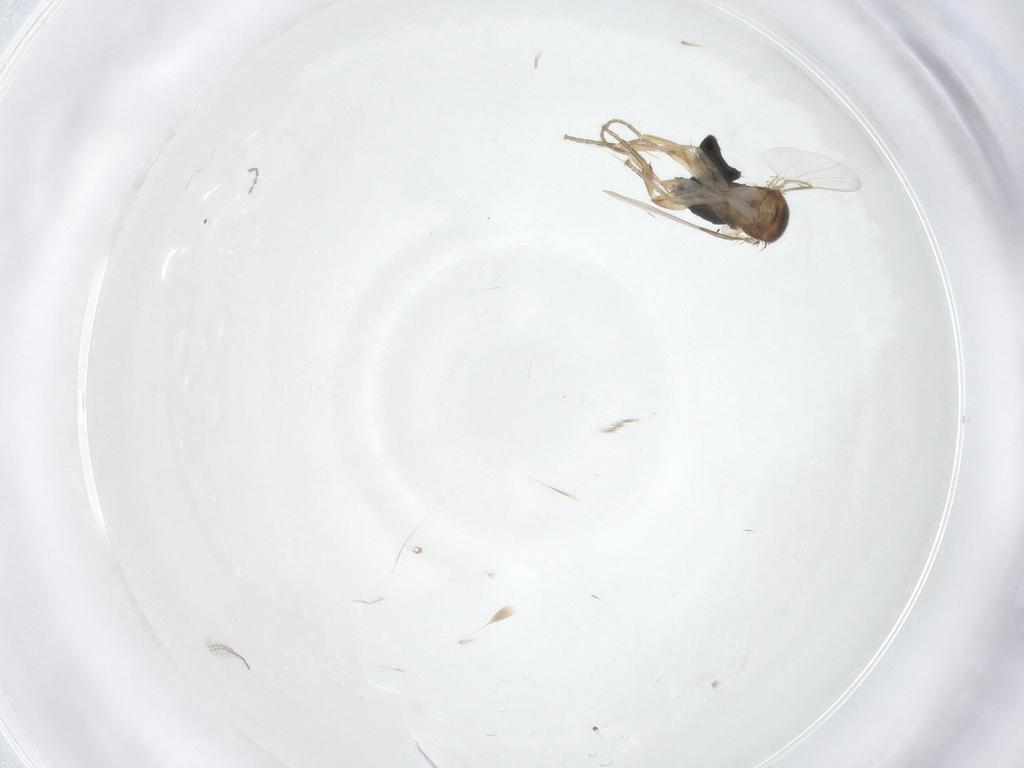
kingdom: Animalia
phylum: Arthropoda
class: Insecta
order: Diptera
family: Cecidomyiidae
